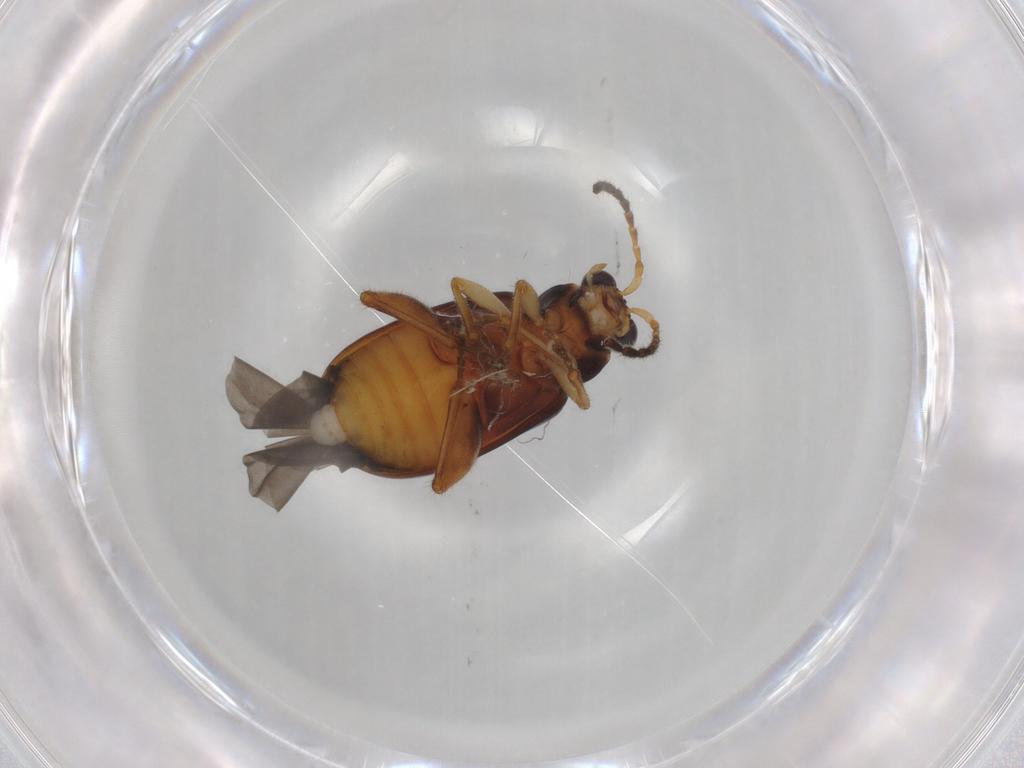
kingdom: Animalia
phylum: Arthropoda
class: Insecta
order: Coleoptera
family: Chrysomelidae
